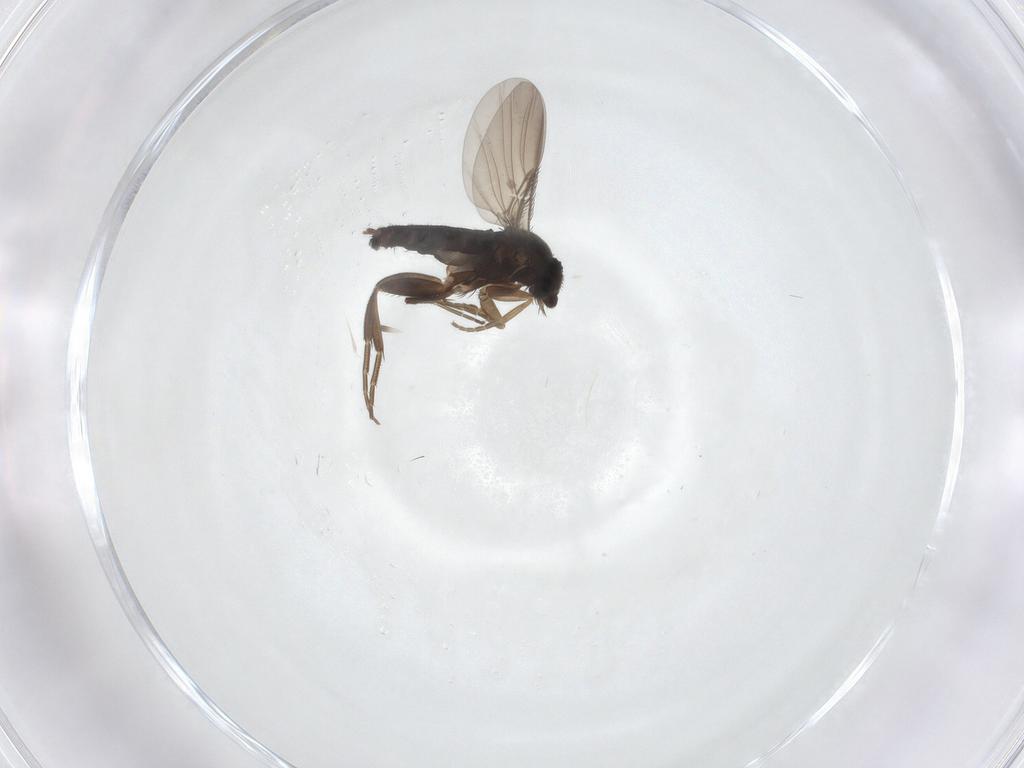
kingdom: Animalia
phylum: Arthropoda
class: Insecta
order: Diptera
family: Phoridae
